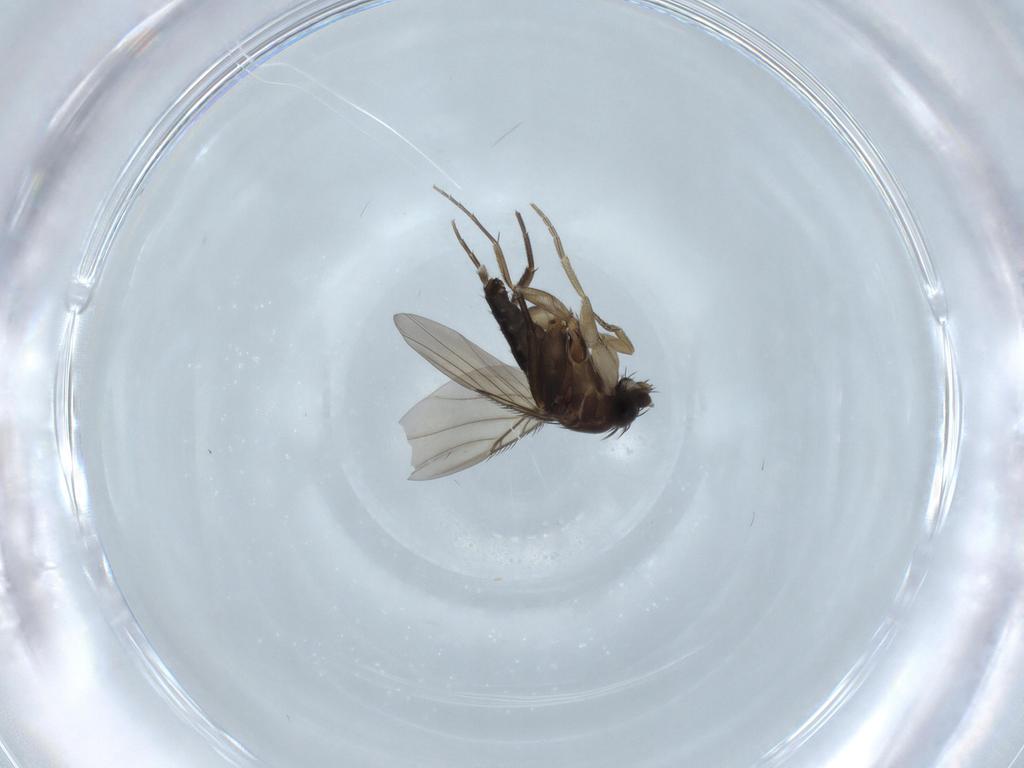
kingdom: Animalia
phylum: Arthropoda
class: Insecta
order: Diptera
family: Phoridae
